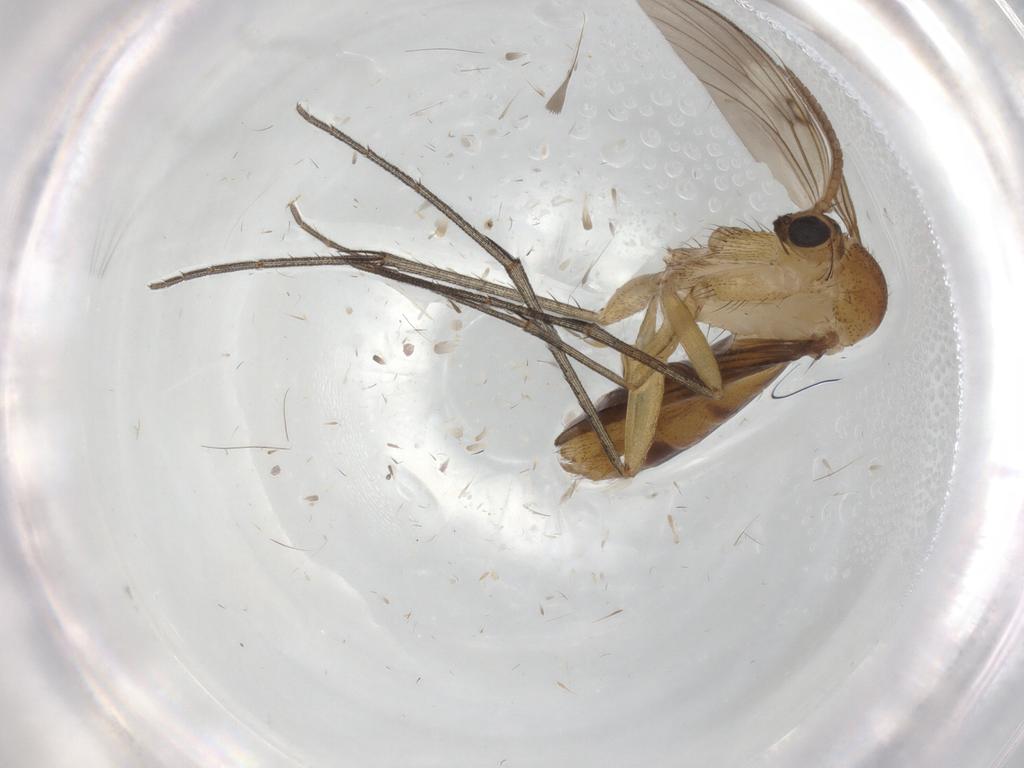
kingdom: Animalia
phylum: Arthropoda
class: Insecta
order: Diptera
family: Mycetophilidae
